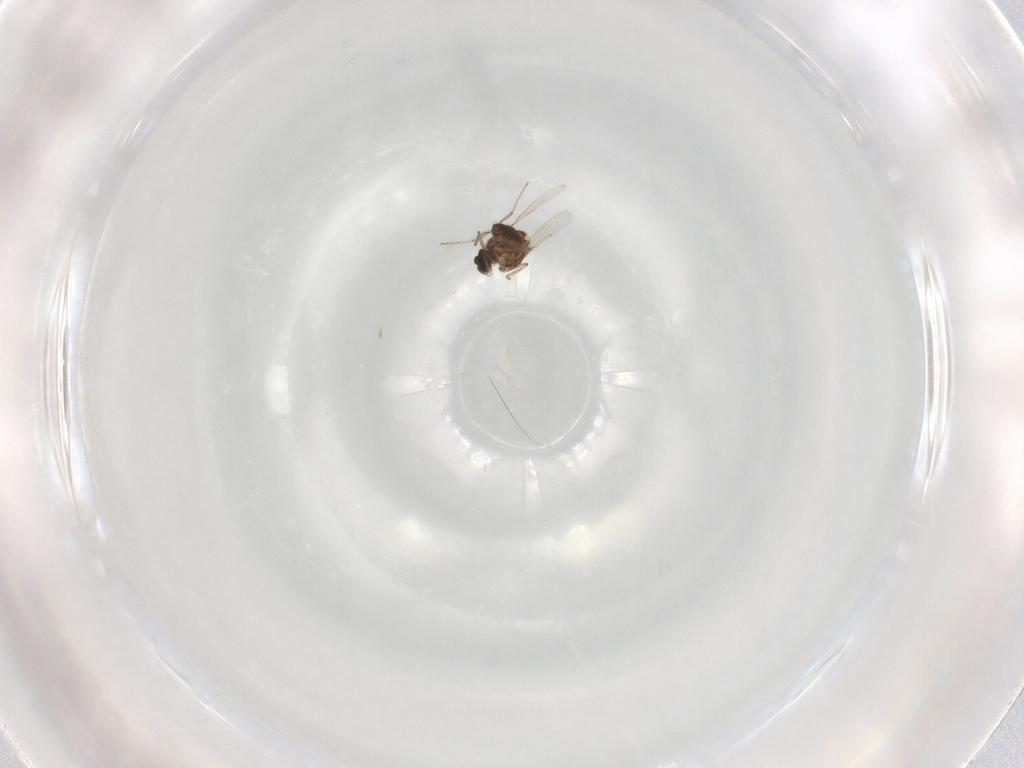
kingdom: Animalia
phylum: Arthropoda
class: Insecta
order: Diptera
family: Ceratopogonidae
